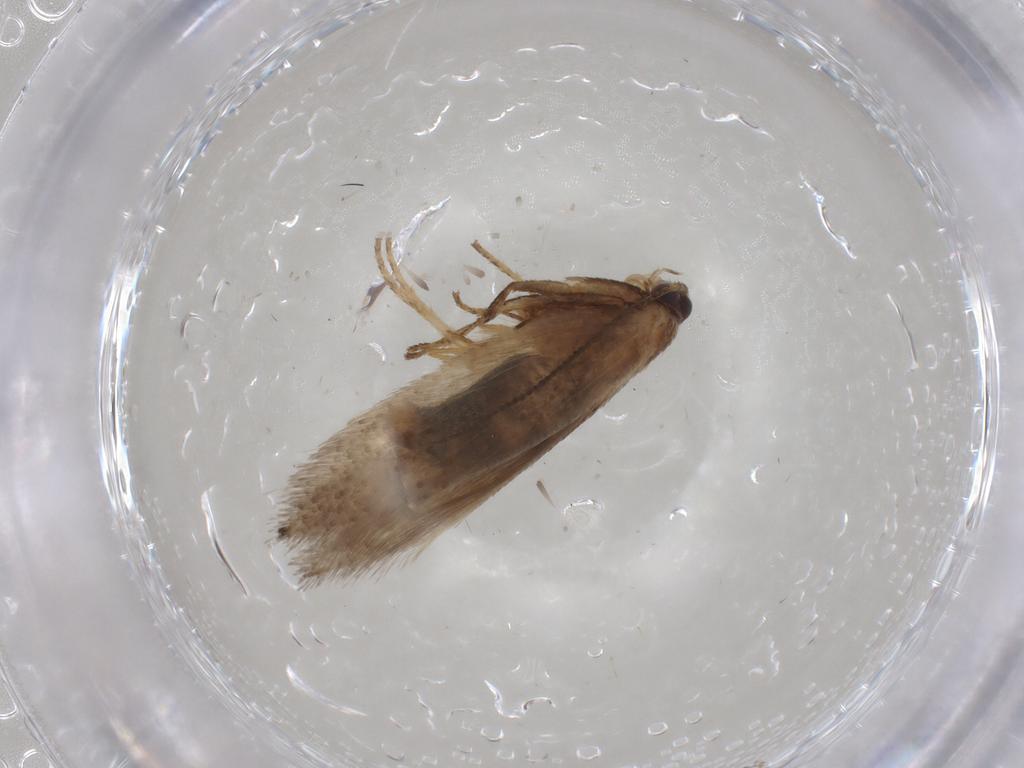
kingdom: Animalia
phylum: Arthropoda
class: Insecta
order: Lepidoptera
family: Nepticulidae
